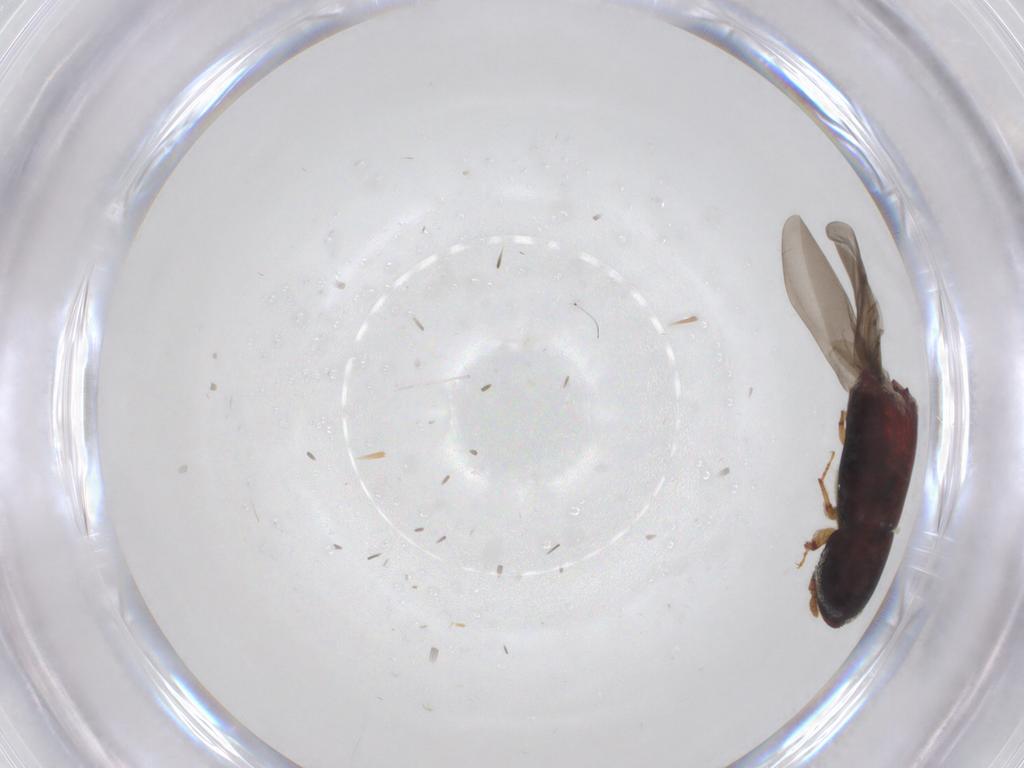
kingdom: Animalia
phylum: Arthropoda
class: Insecta
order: Coleoptera
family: Curculionidae
